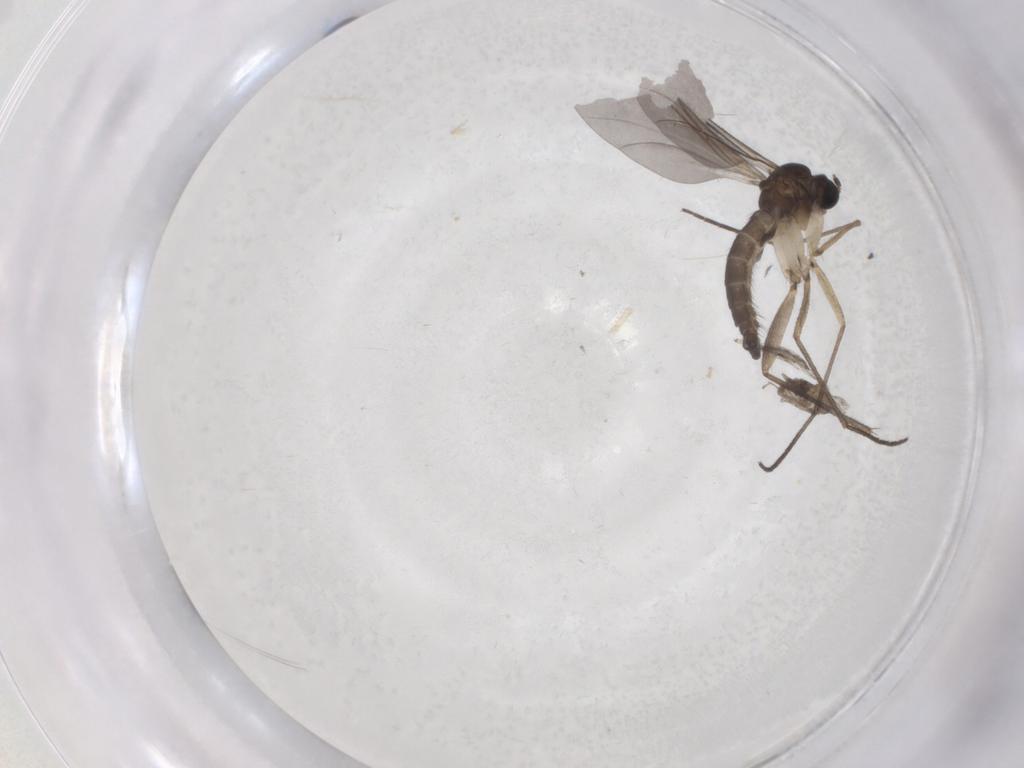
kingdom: Animalia
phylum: Arthropoda
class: Insecta
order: Diptera
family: Sciaridae
